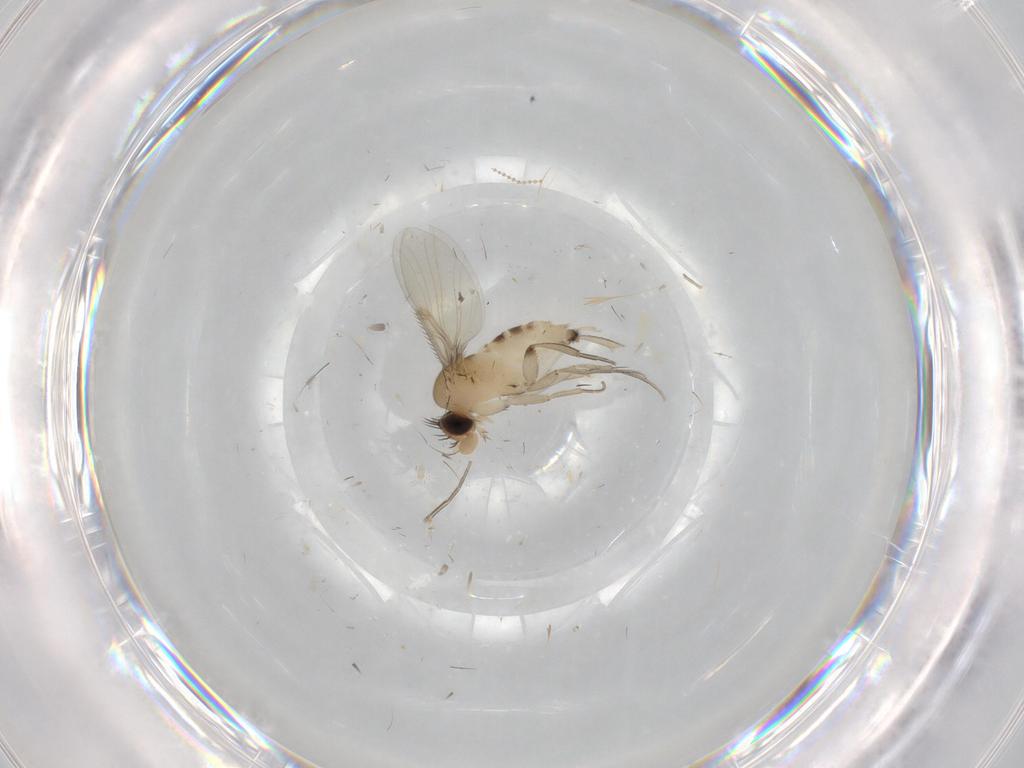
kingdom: Animalia
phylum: Arthropoda
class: Insecta
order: Diptera
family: Phoridae
